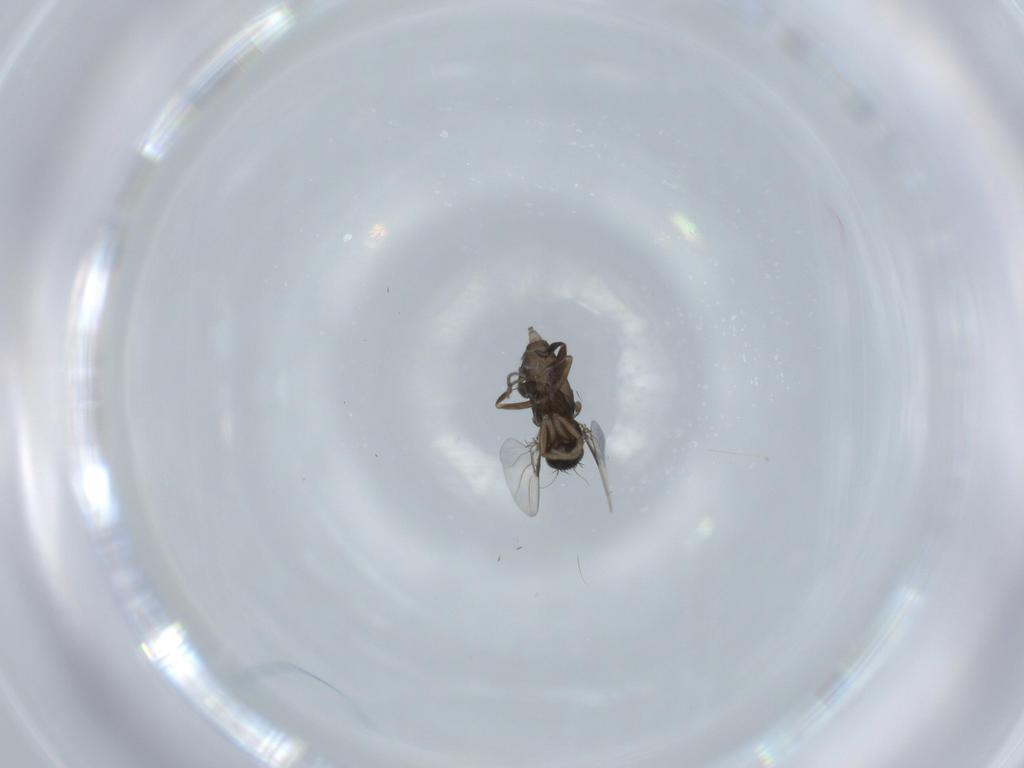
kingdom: Animalia
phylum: Arthropoda
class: Insecta
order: Diptera
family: Phoridae
